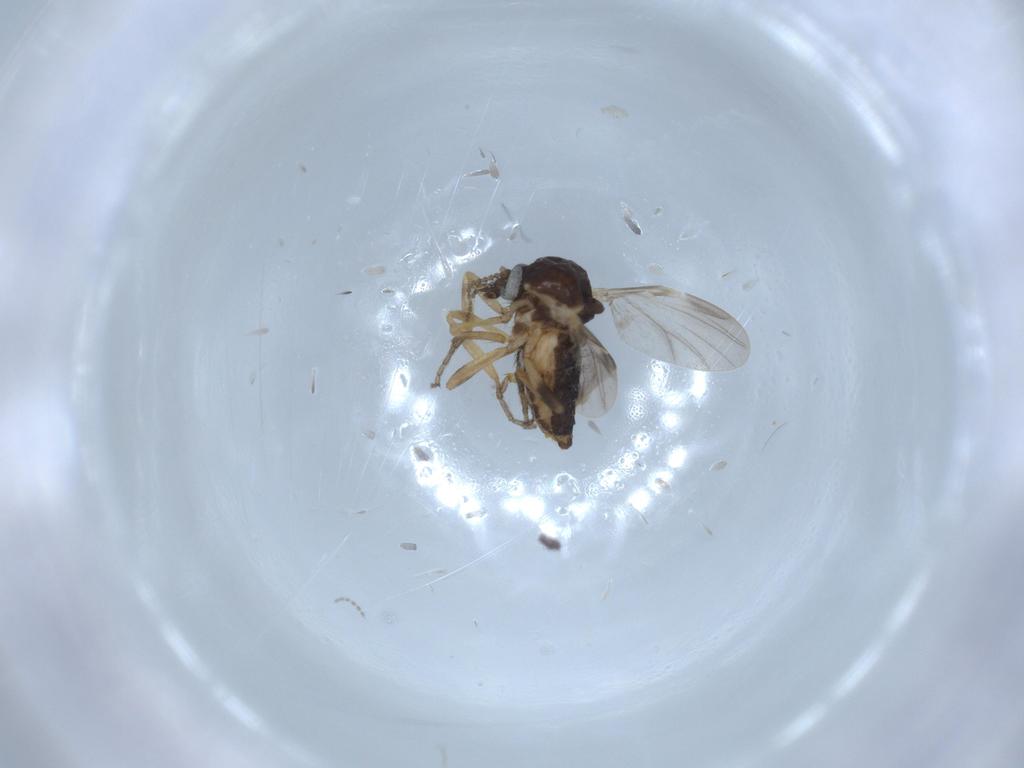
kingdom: Animalia
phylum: Arthropoda
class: Insecta
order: Diptera
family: Ceratopogonidae
